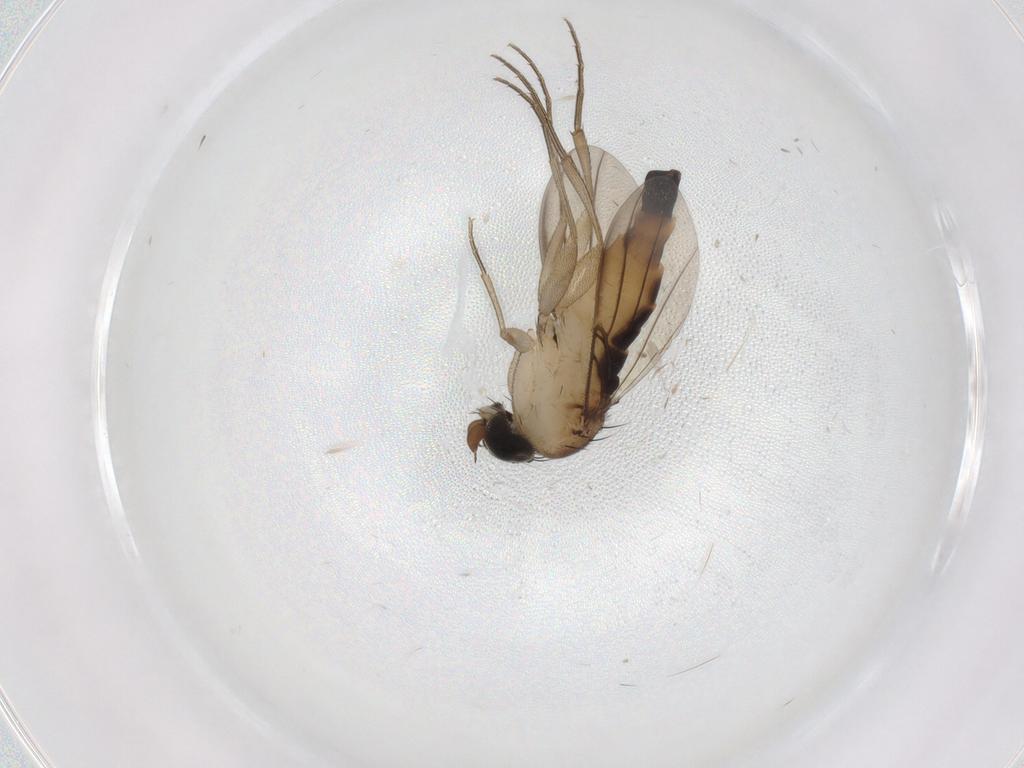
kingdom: Animalia
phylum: Arthropoda
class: Insecta
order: Diptera
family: Phoridae
